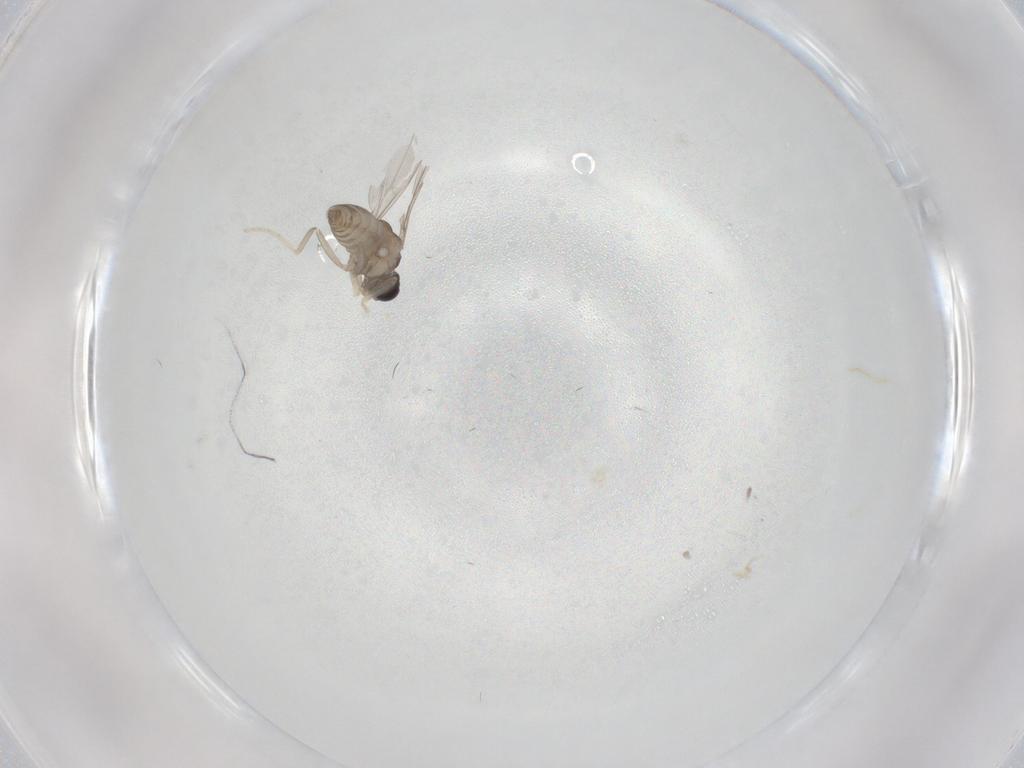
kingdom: Animalia
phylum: Arthropoda
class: Insecta
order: Diptera
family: Cecidomyiidae
